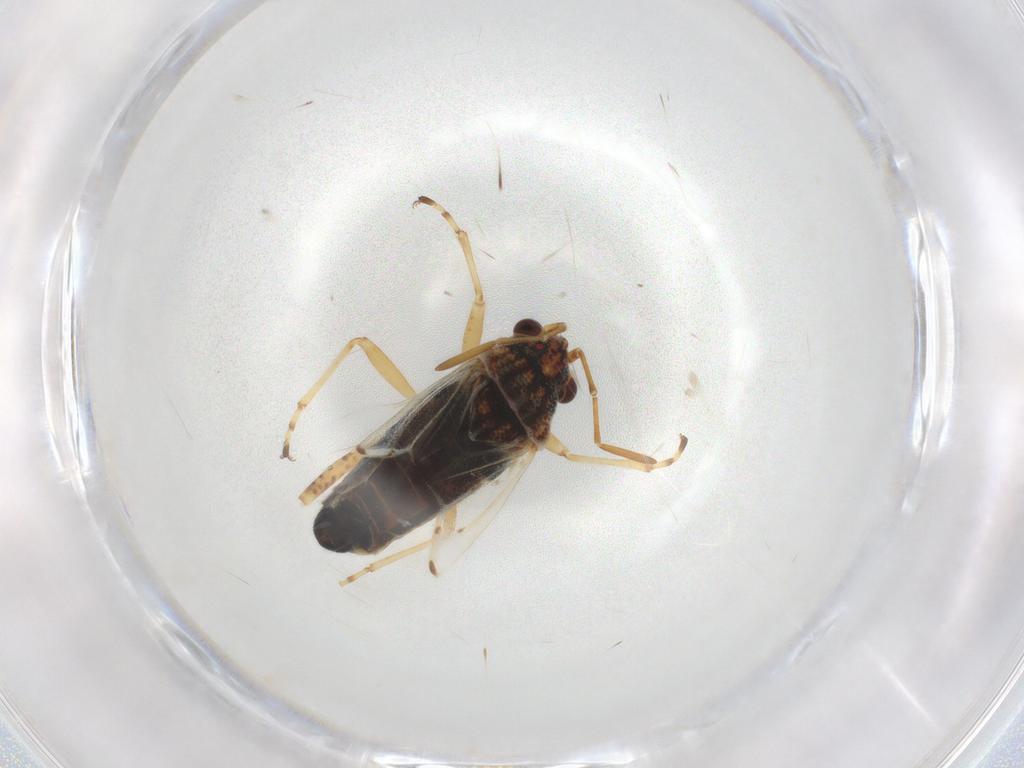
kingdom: Animalia
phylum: Arthropoda
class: Insecta
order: Hemiptera
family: Lygaeidae
